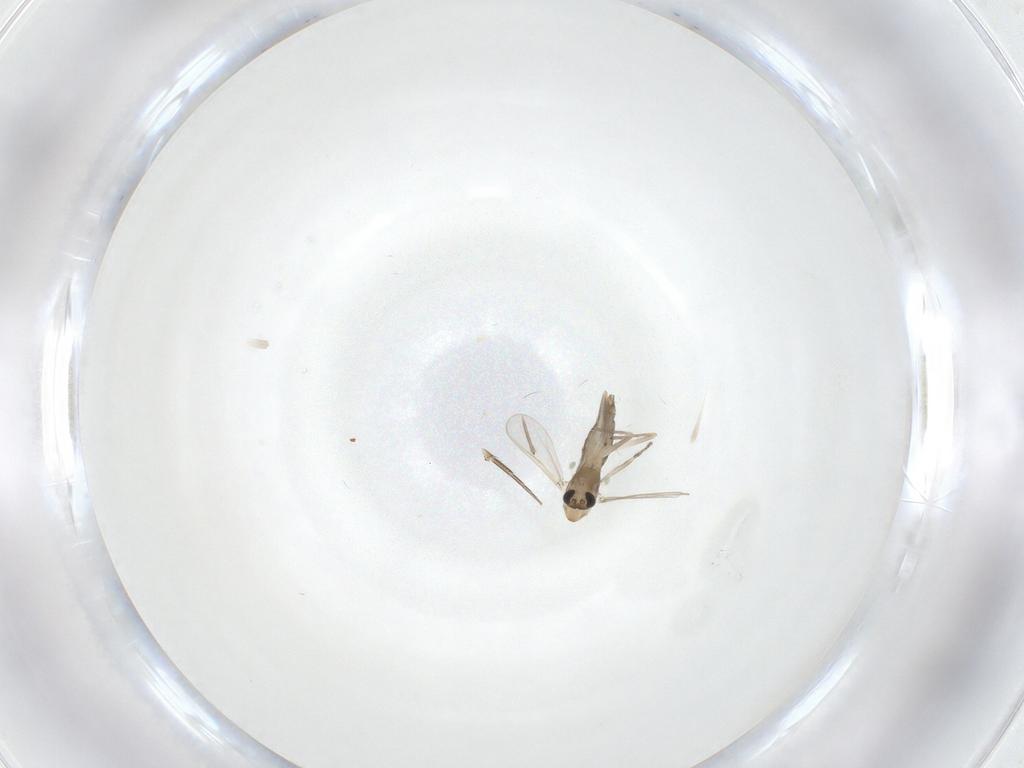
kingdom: Animalia
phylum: Arthropoda
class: Insecta
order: Diptera
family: Chironomidae
